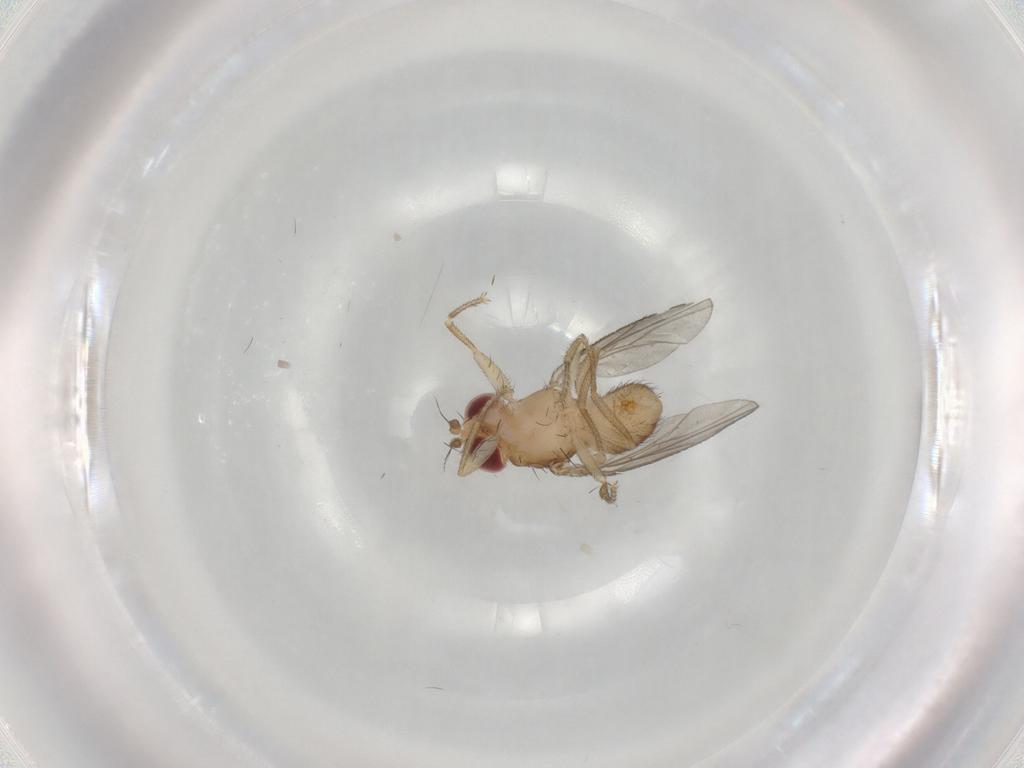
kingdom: Animalia
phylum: Arthropoda
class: Insecta
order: Diptera
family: Drosophilidae
